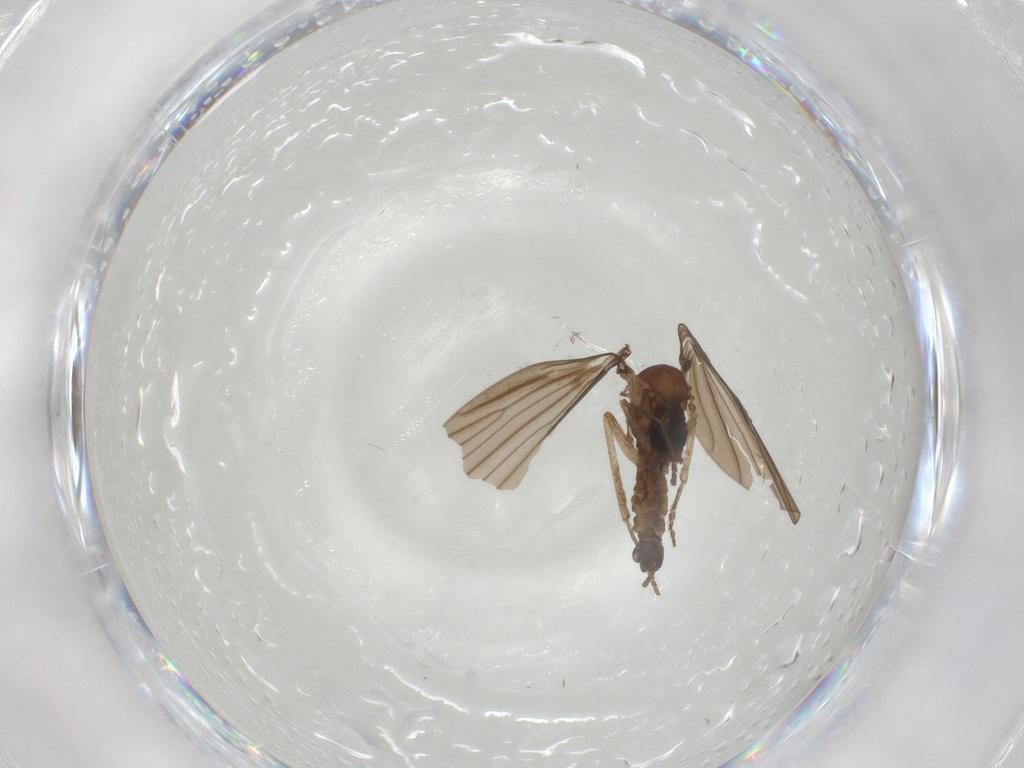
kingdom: Animalia
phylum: Arthropoda
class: Insecta
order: Diptera
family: Psychodidae
